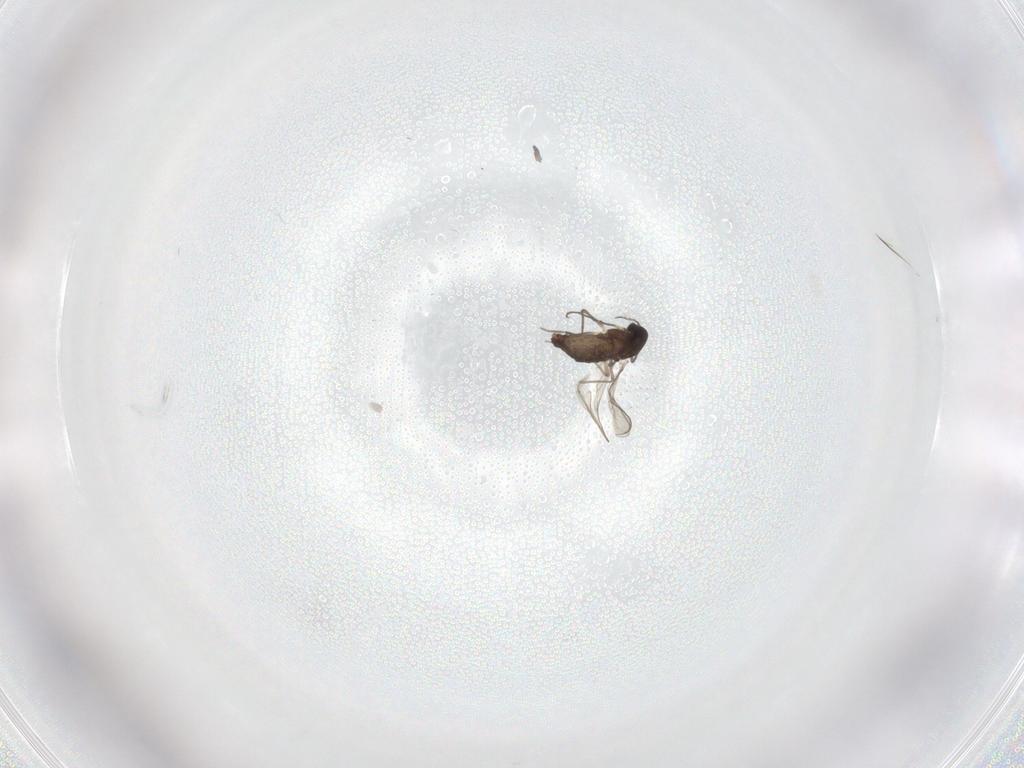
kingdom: Animalia
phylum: Arthropoda
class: Insecta
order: Diptera
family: Chironomidae
